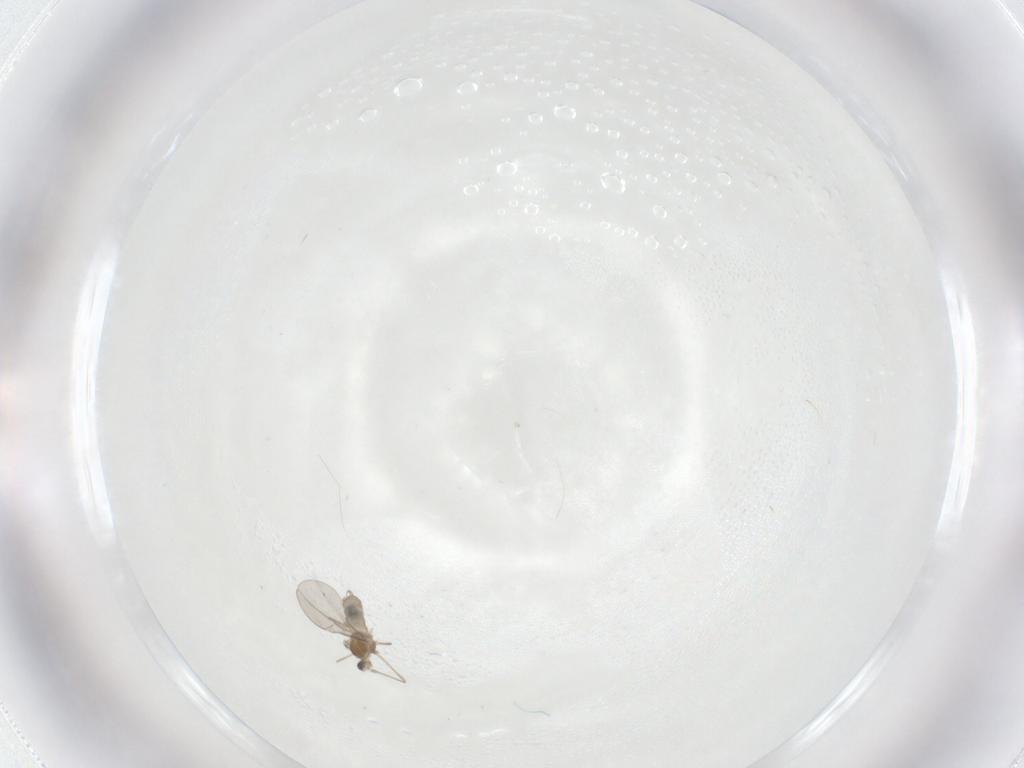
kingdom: Animalia
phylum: Arthropoda
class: Insecta
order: Diptera
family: Cecidomyiidae
